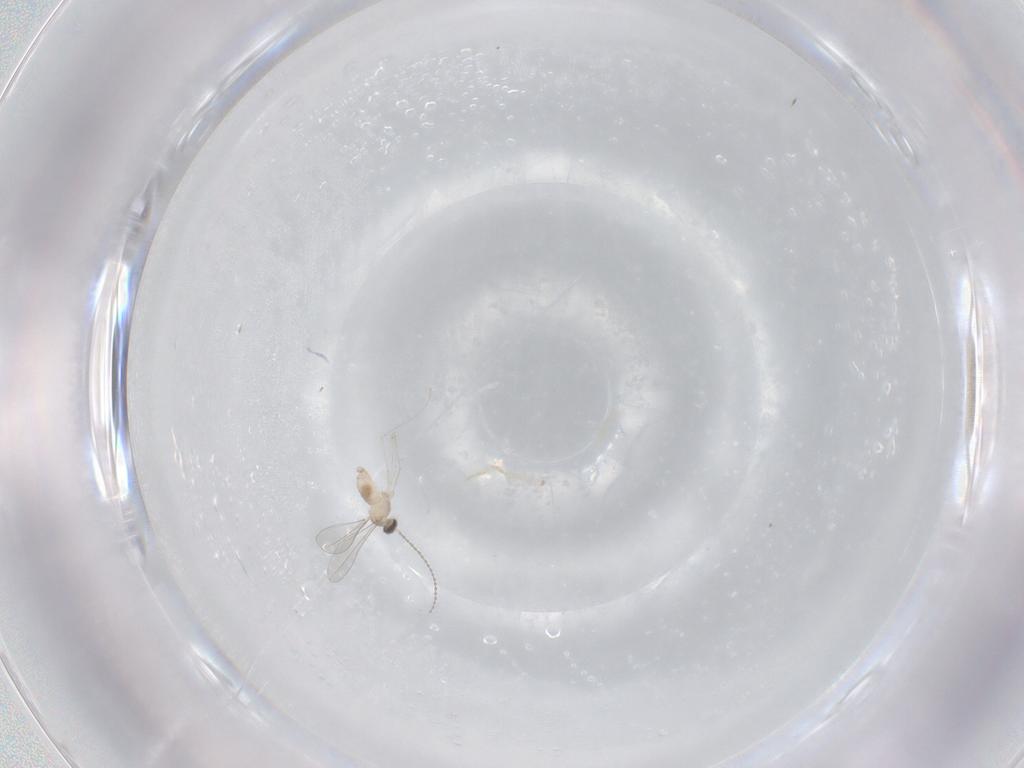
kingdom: Animalia
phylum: Arthropoda
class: Insecta
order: Diptera
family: Cecidomyiidae
